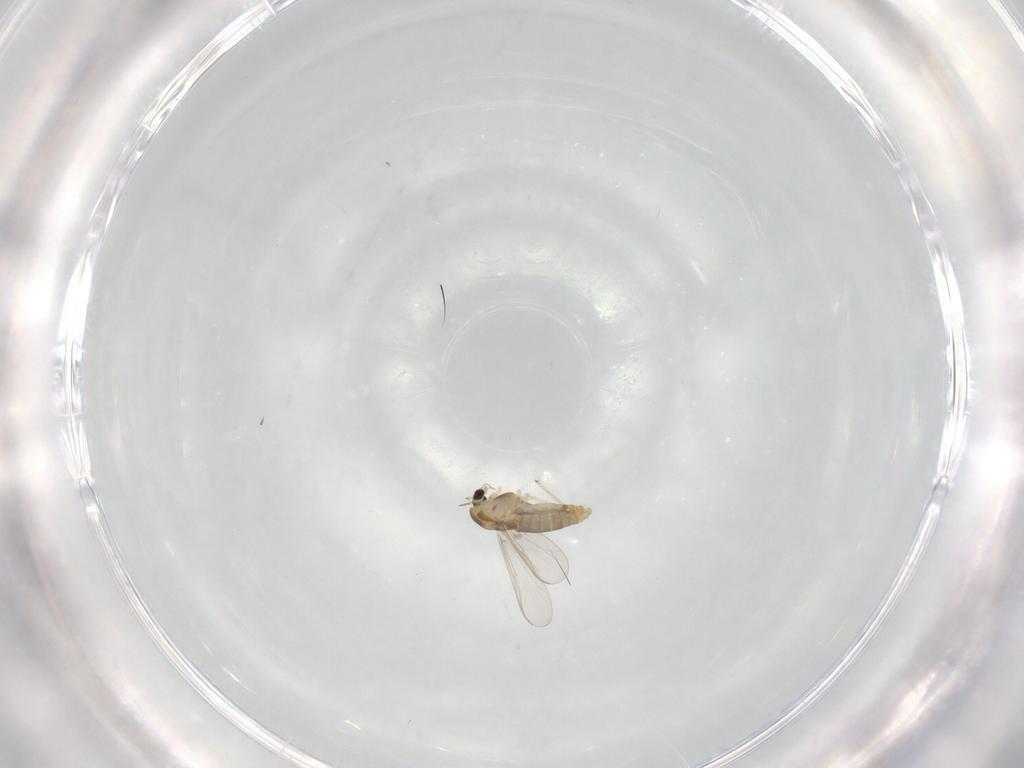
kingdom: Animalia
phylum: Arthropoda
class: Insecta
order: Diptera
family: Chironomidae
